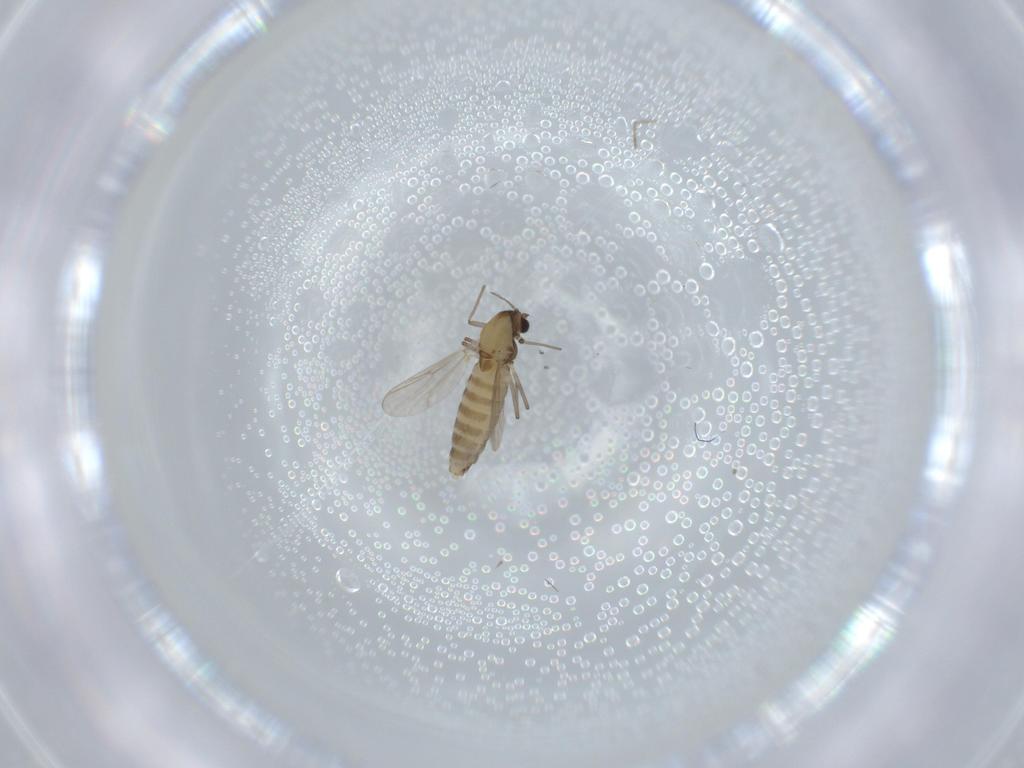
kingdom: Animalia
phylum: Arthropoda
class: Insecta
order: Diptera
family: Chironomidae
